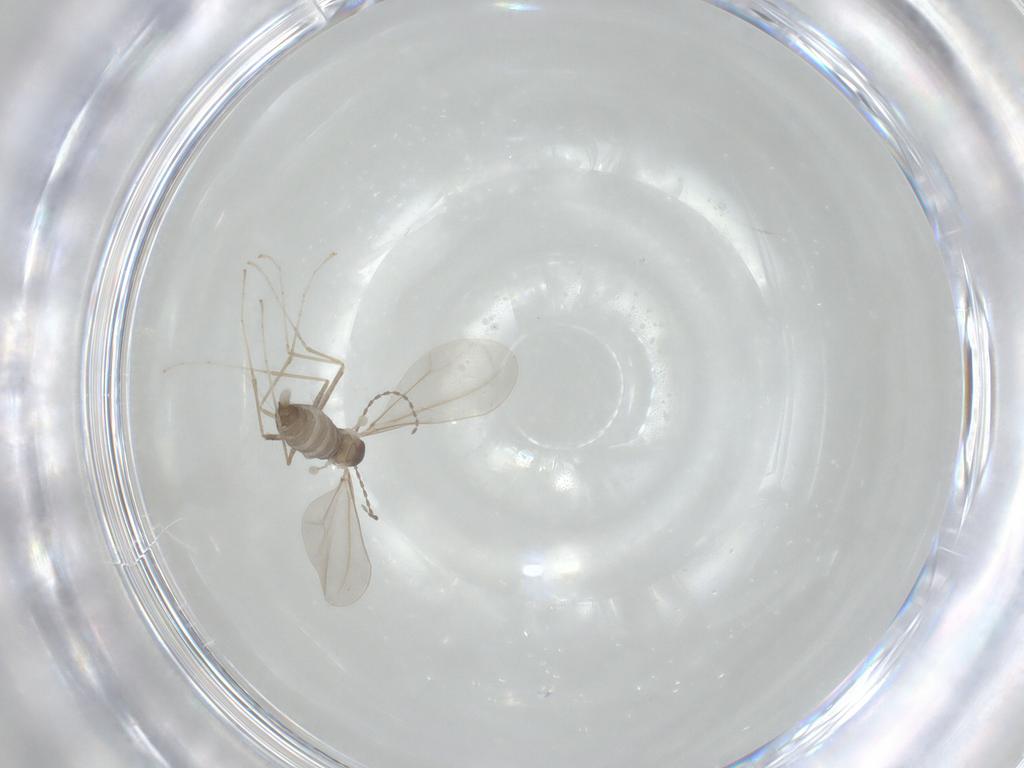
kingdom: Animalia
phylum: Arthropoda
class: Insecta
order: Diptera
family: Cecidomyiidae
